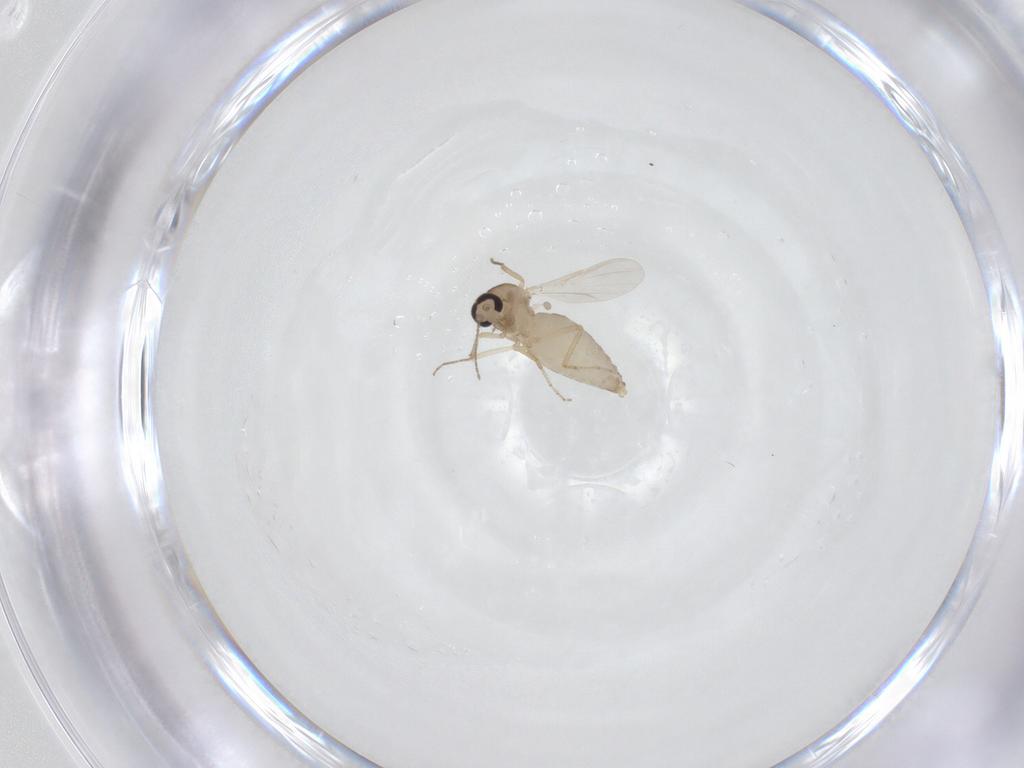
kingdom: Animalia
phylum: Arthropoda
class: Insecta
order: Diptera
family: Ceratopogonidae
